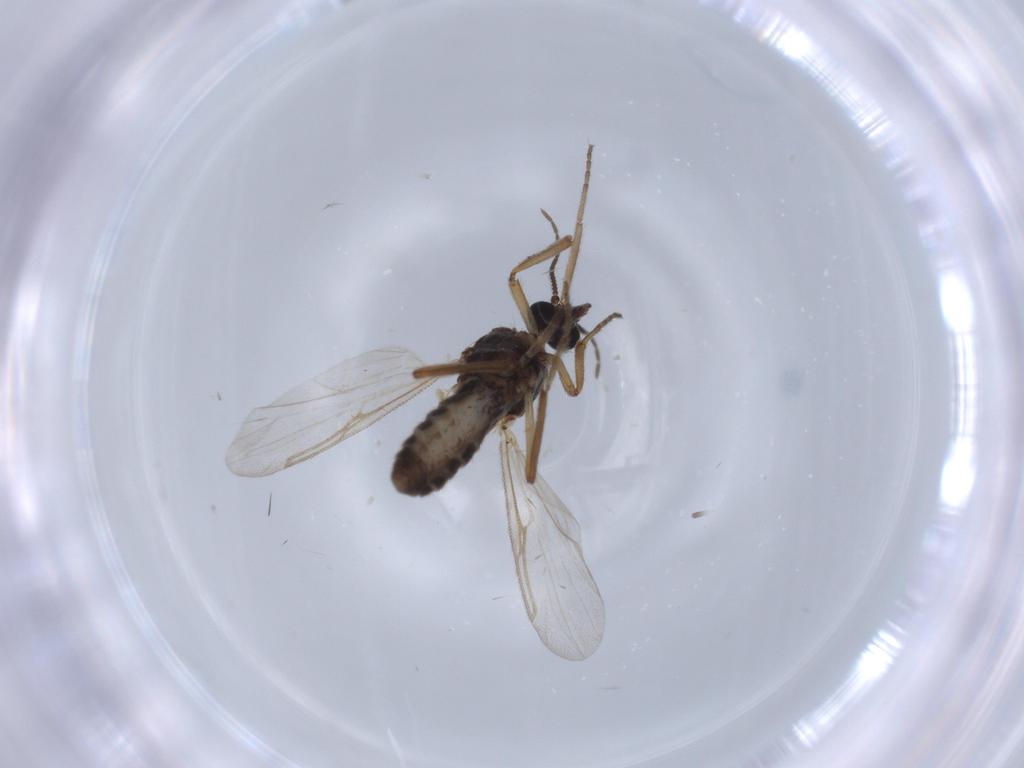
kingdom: Animalia
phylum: Arthropoda
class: Insecta
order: Diptera
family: Ceratopogonidae
